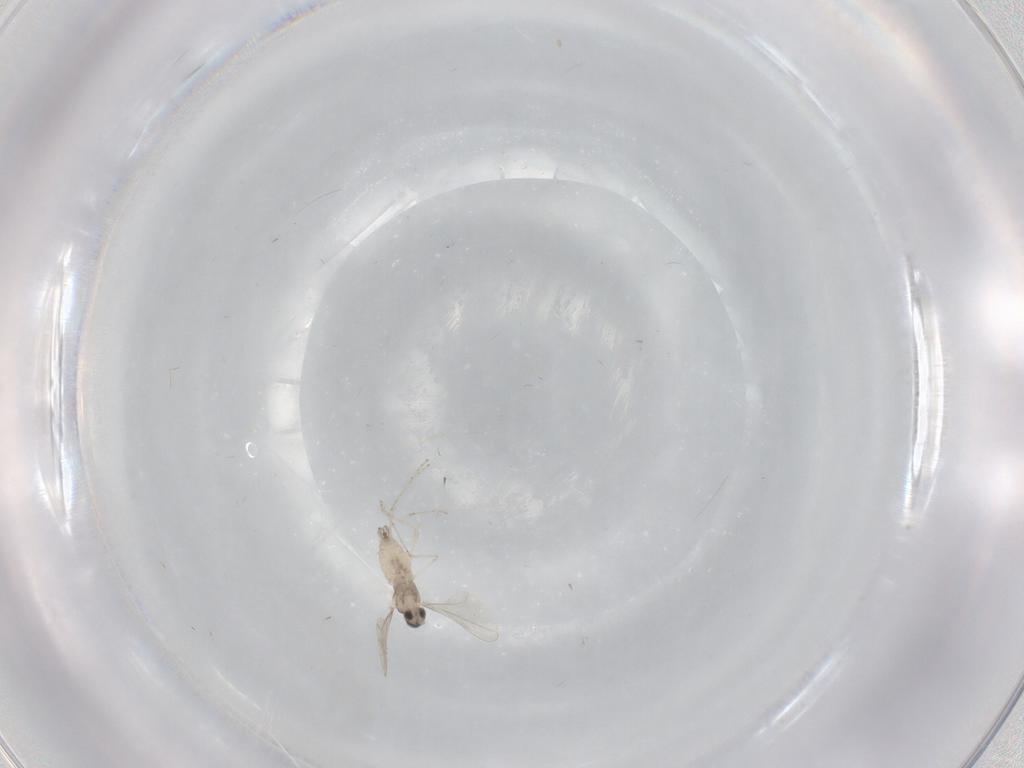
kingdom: Animalia
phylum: Arthropoda
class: Insecta
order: Diptera
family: Cecidomyiidae
